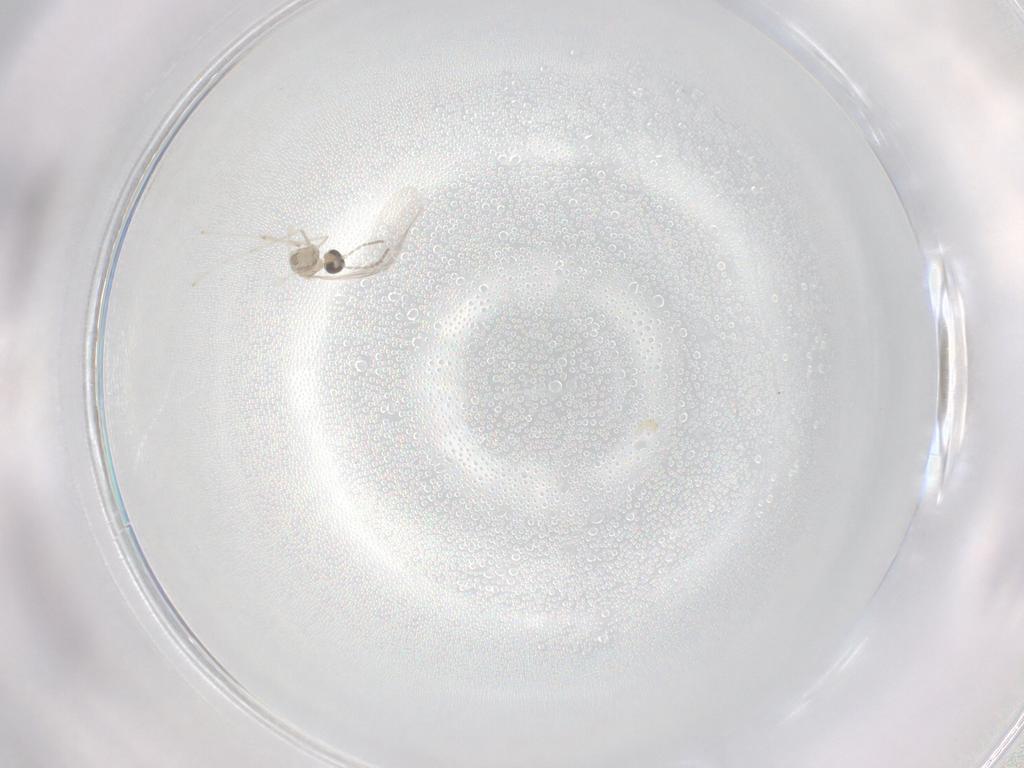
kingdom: Animalia
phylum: Arthropoda
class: Insecta
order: Diptera
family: Cecidomyiidae
